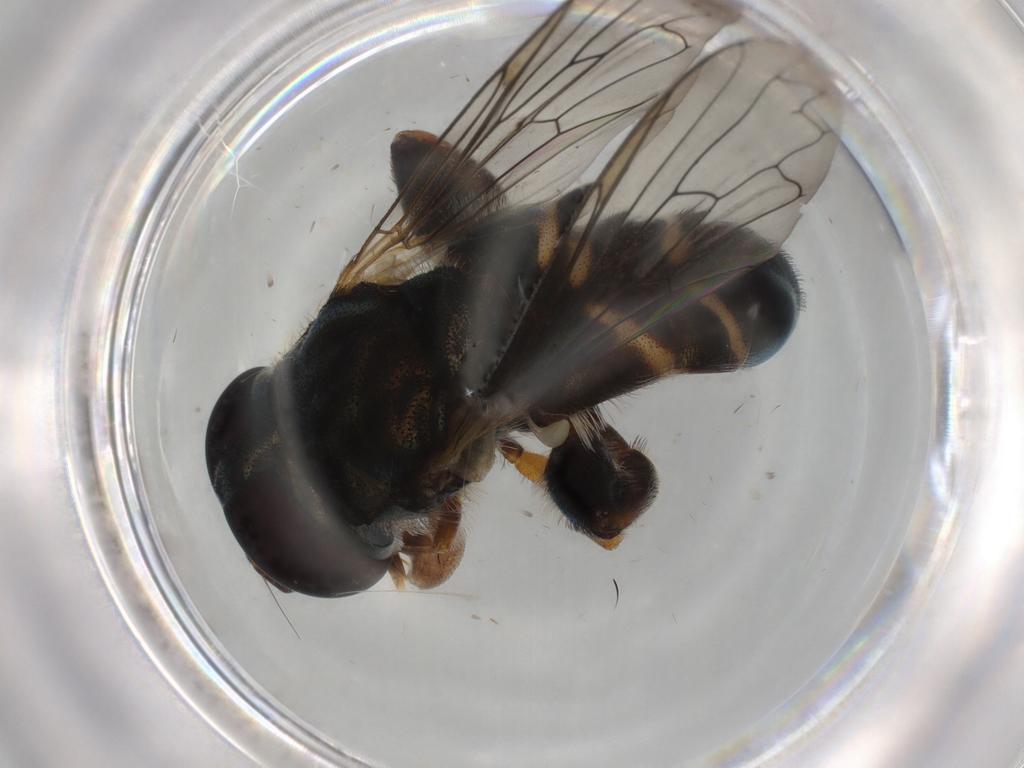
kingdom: Animalia
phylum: Arthropoda
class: Insecta
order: Diptera
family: Syrphidae
